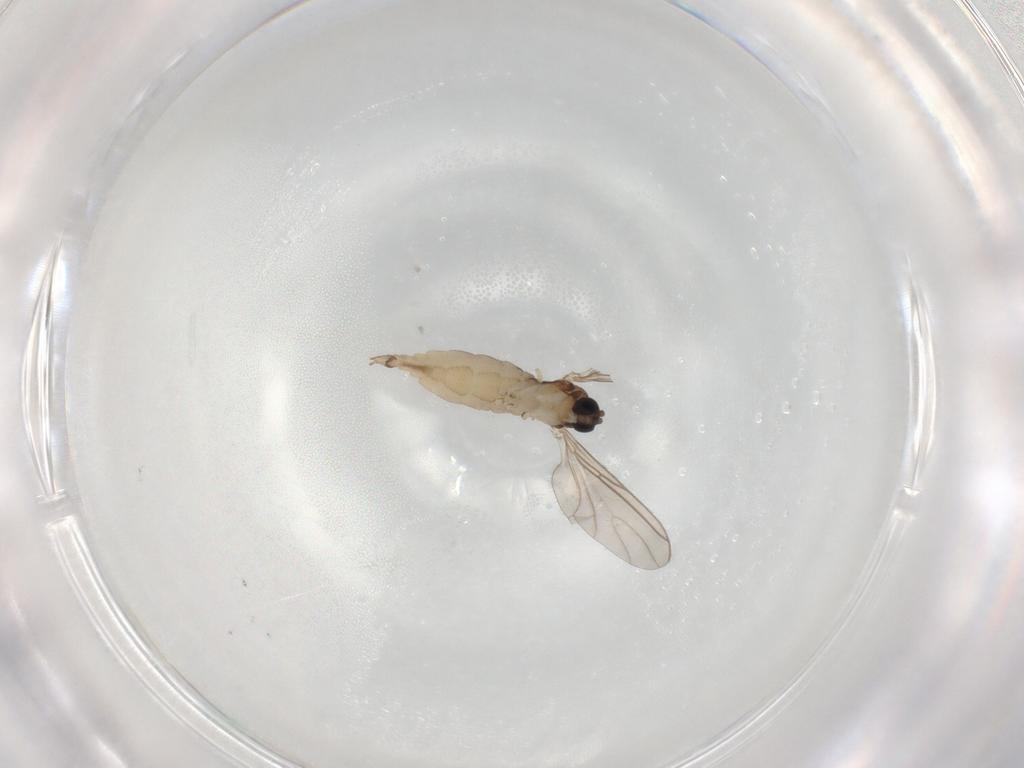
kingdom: Animalia
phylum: Arthropoda
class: Insecta
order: Diptera
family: Sciaridae
